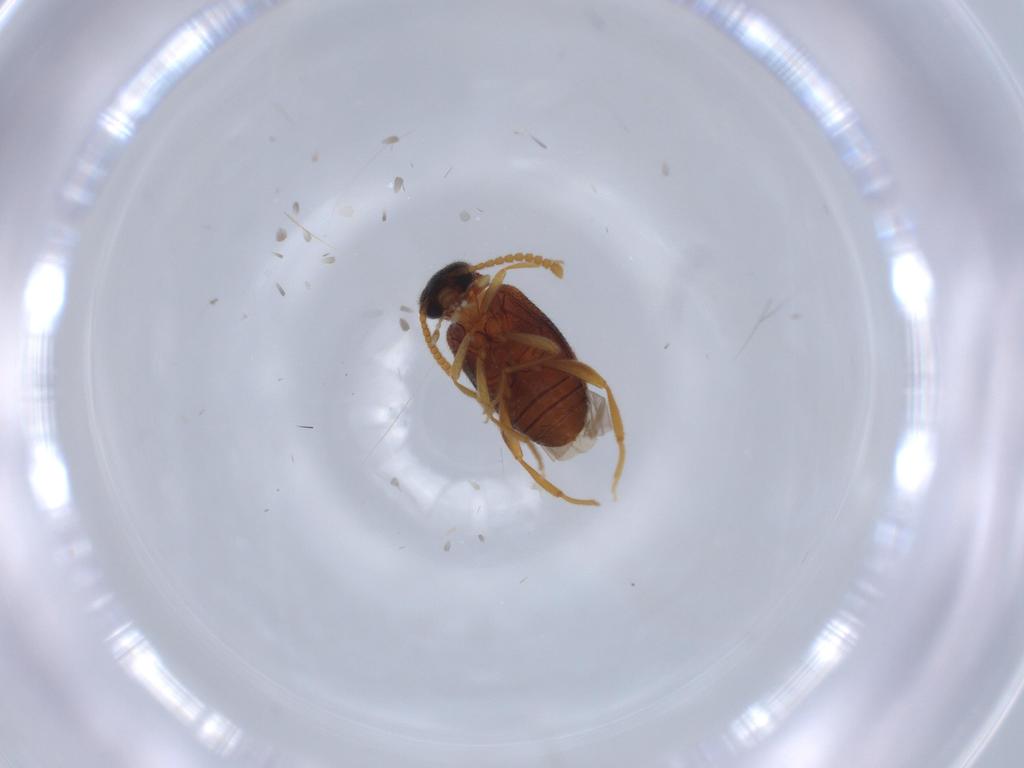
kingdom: Animalia
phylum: Arthropoda
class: Insecta
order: Coleoptera
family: Aderidae
